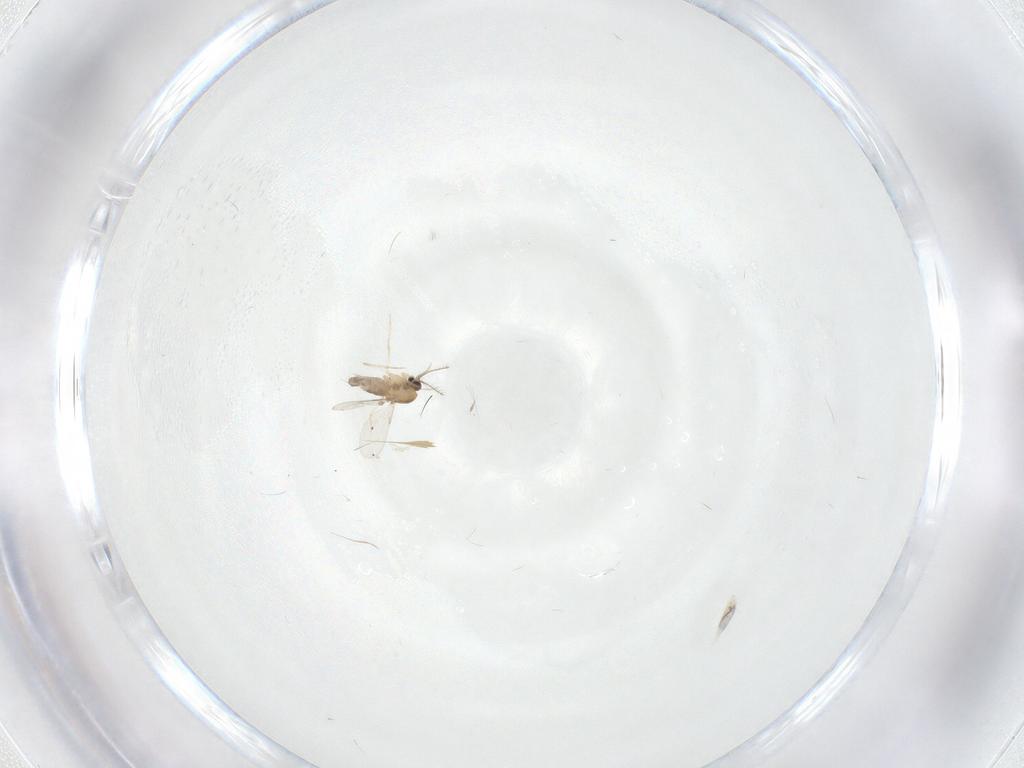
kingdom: Animalia
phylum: Arthropoda
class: Insecta
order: Diptera
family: Ceratopogonidae
